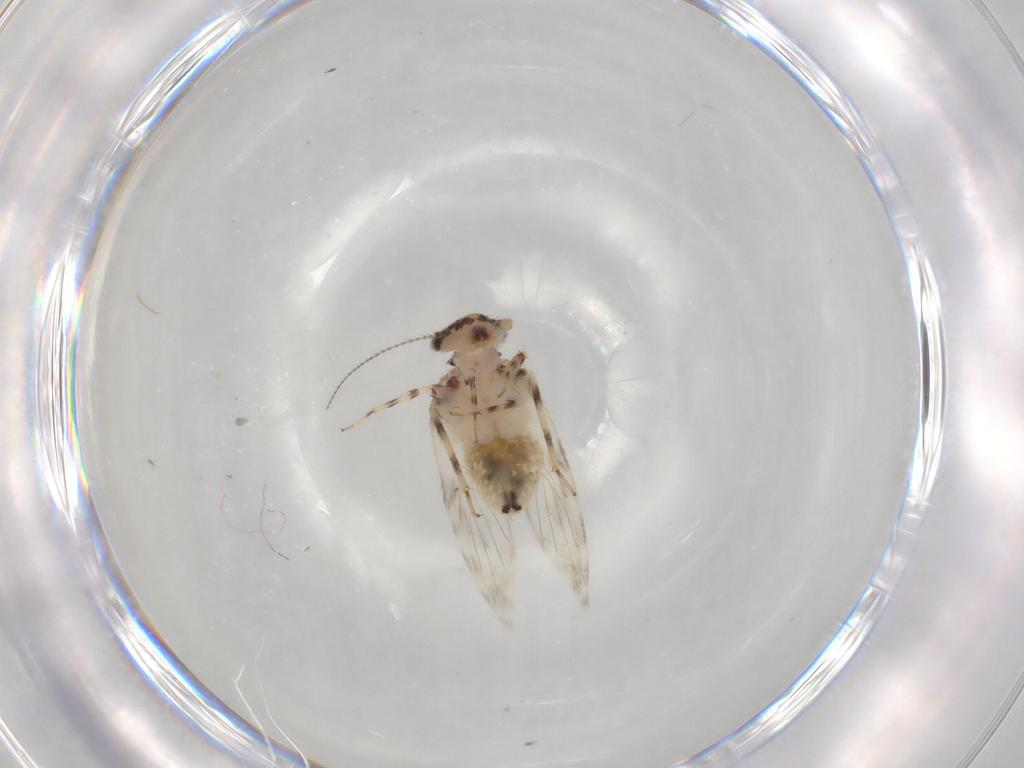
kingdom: Animalia
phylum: Arthropoda
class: Insecta
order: Psocodea
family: Lepidopsocidae
